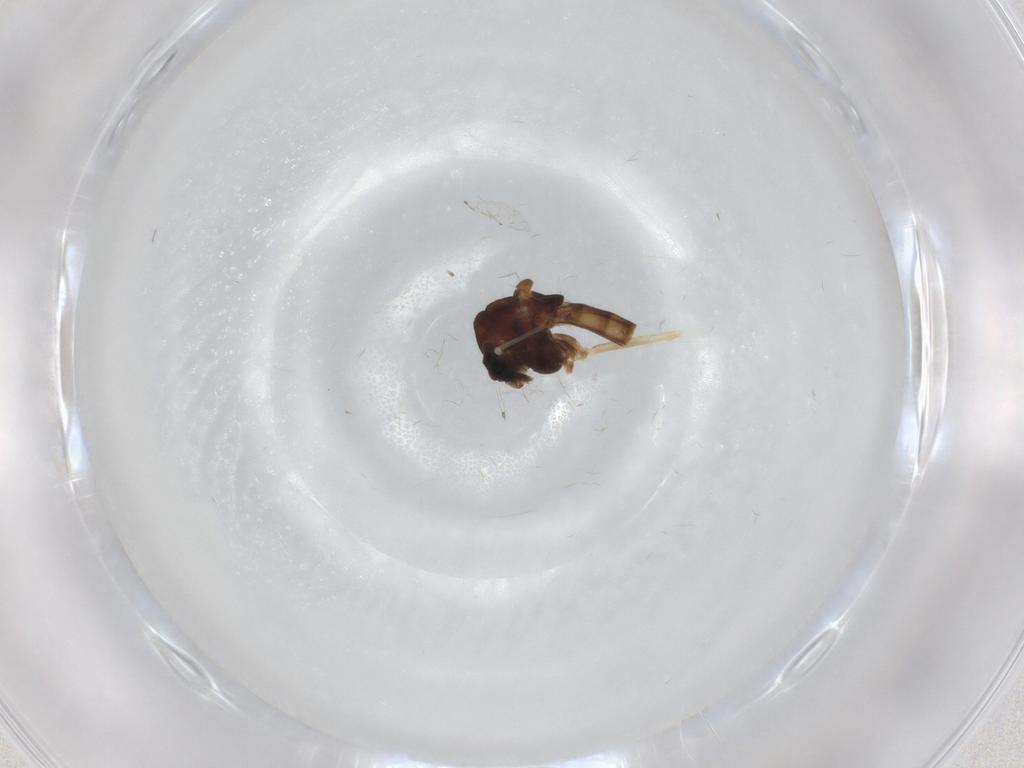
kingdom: Animalia
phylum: Arthropoda
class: Insecta
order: Diptera
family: Chironomidae
